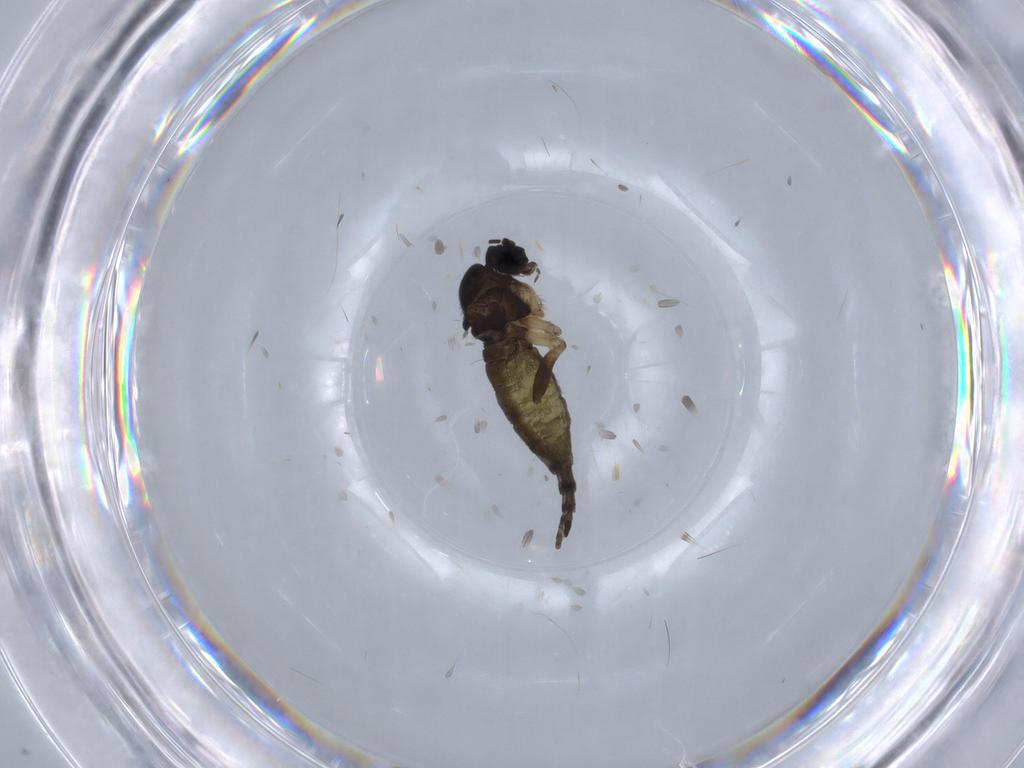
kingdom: Animalia
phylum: Arthropoda
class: Insecta
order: Diptera
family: Sciaridae
